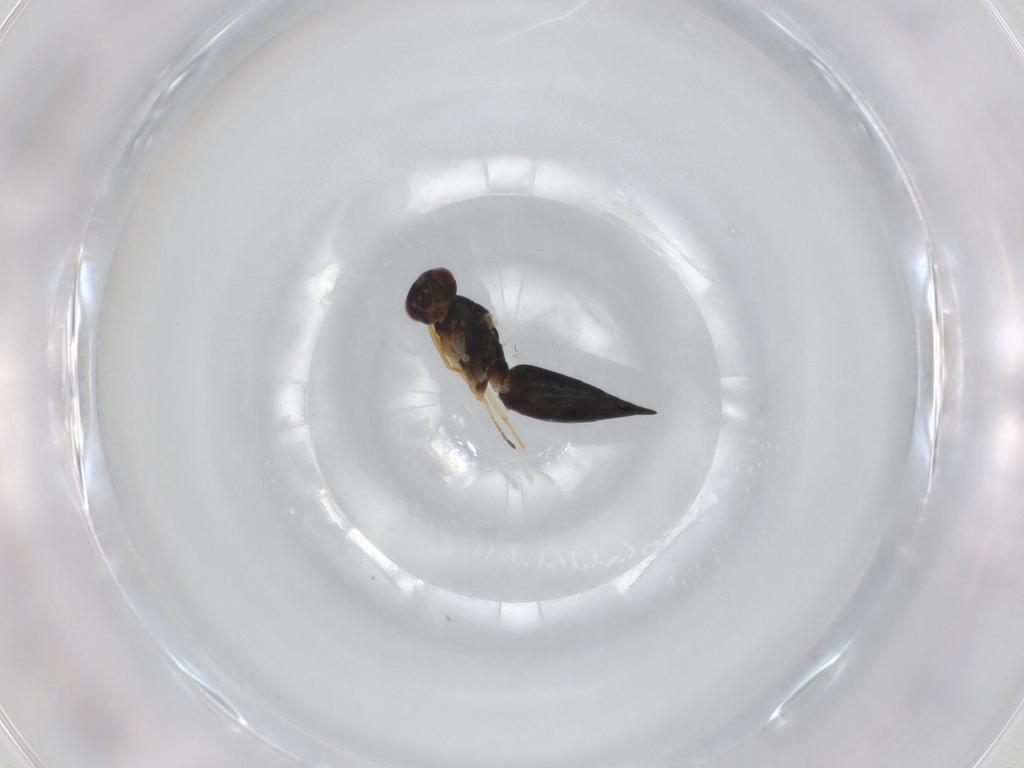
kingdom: Animalia
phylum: Arthropoda
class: Insecta
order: Hymenoptera
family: Eulophidae
